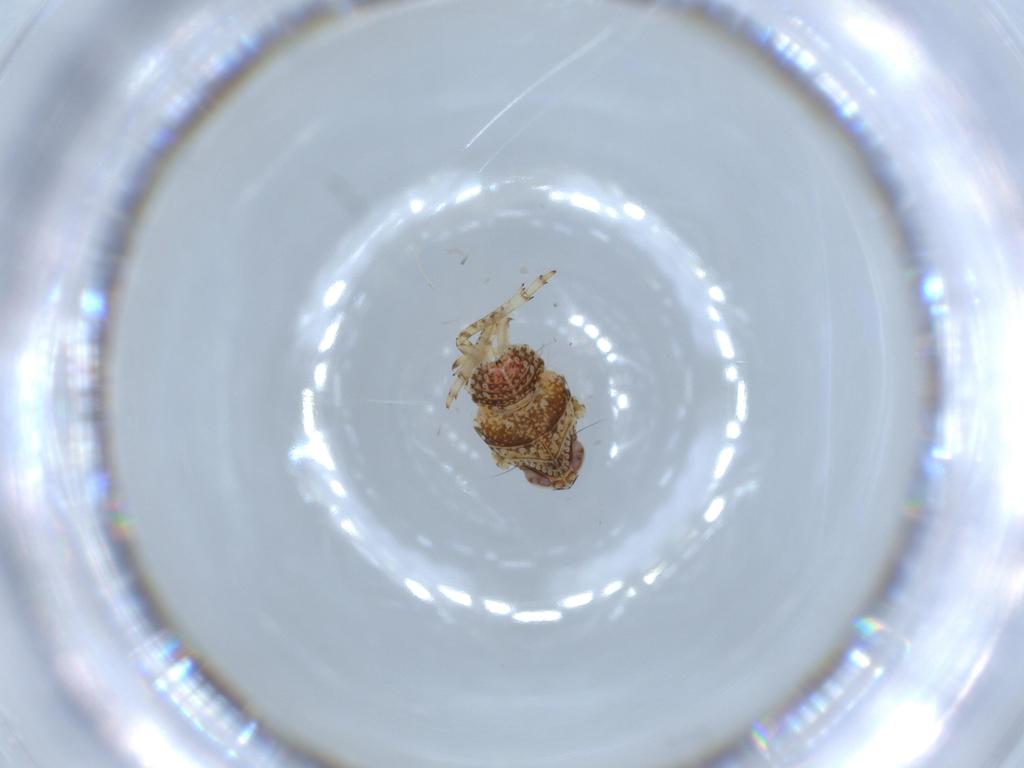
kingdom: Animalia
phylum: Arthropoda
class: Insecta
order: Hemiptera
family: Issidae
